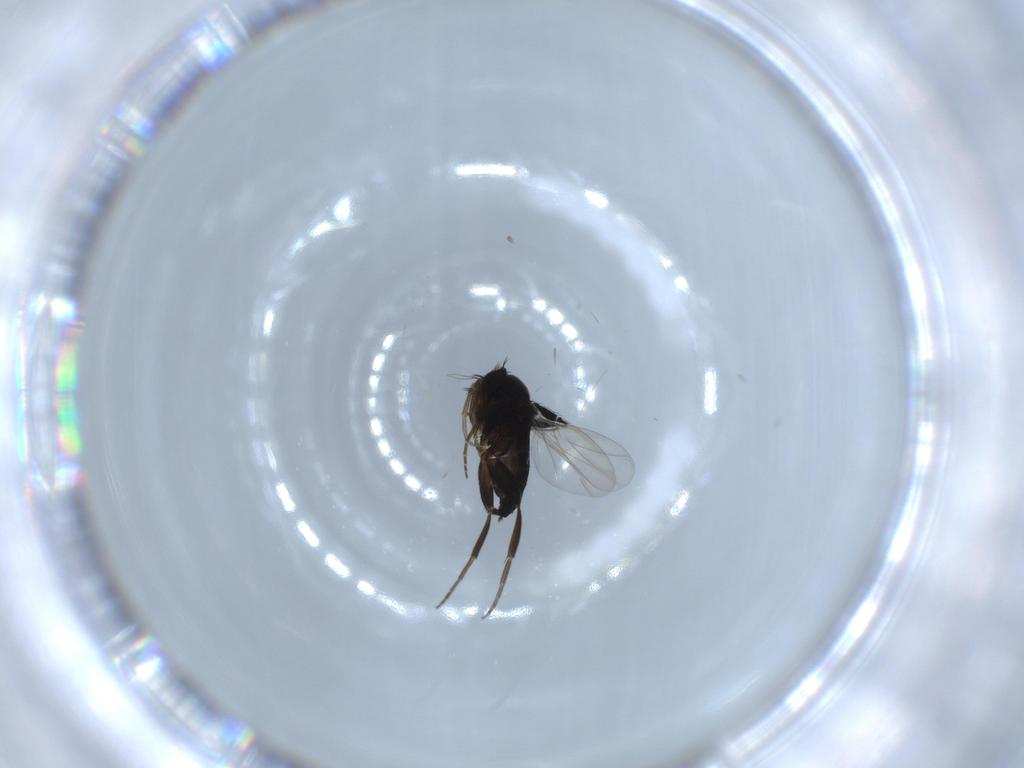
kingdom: Animalia
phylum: Arthropoda
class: Insecta
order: Diptera
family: Phoridae
